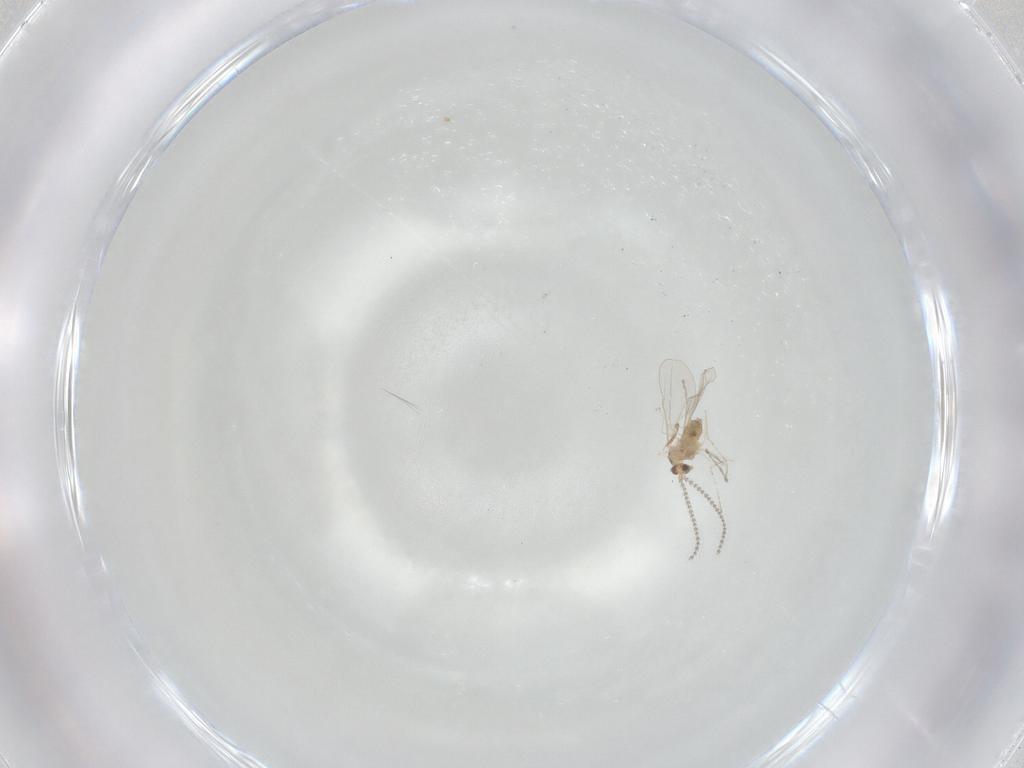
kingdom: Animalia
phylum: Arthropoda
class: Insecta
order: Diptera
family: Cecidomyiidae
